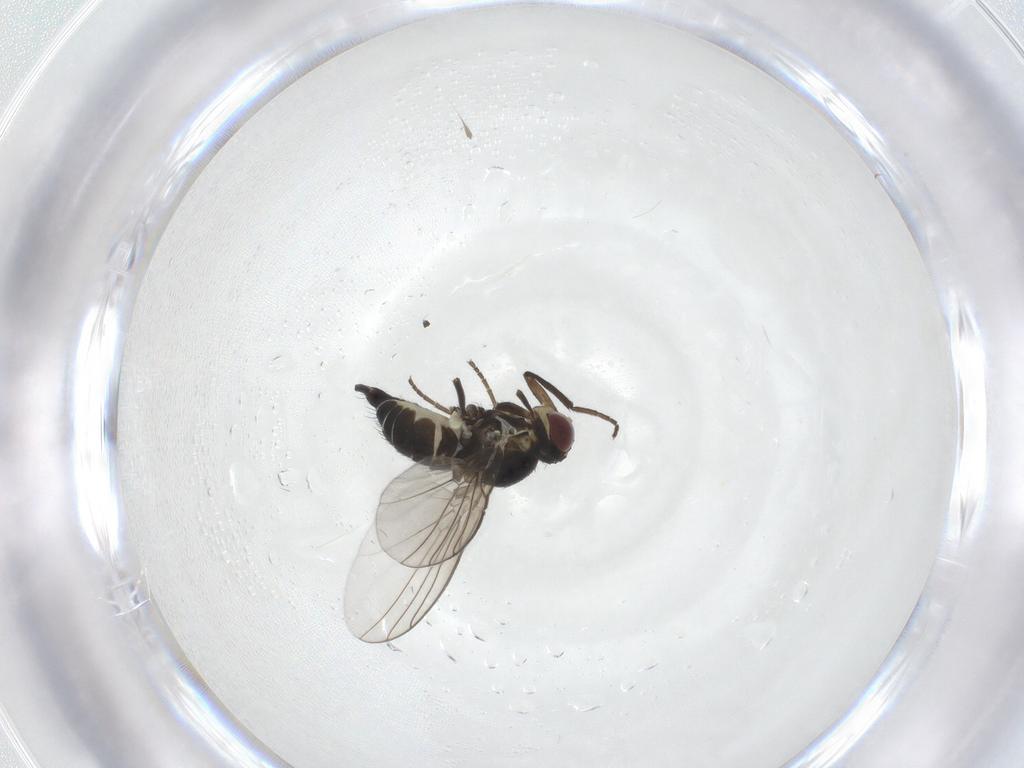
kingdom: Animalia
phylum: Arthropoda
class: Insecta
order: Diptera
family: Agromyzidae
